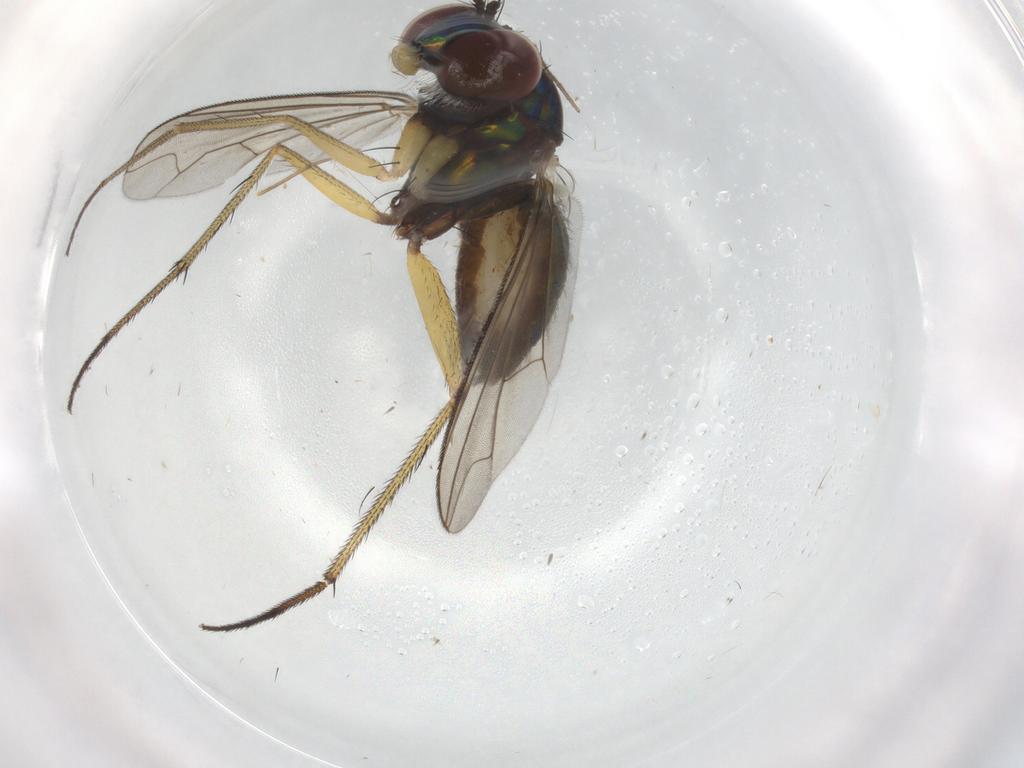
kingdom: Animalia
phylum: Arthropoda
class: Insecta
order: Diptera
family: Dolichopodidae
